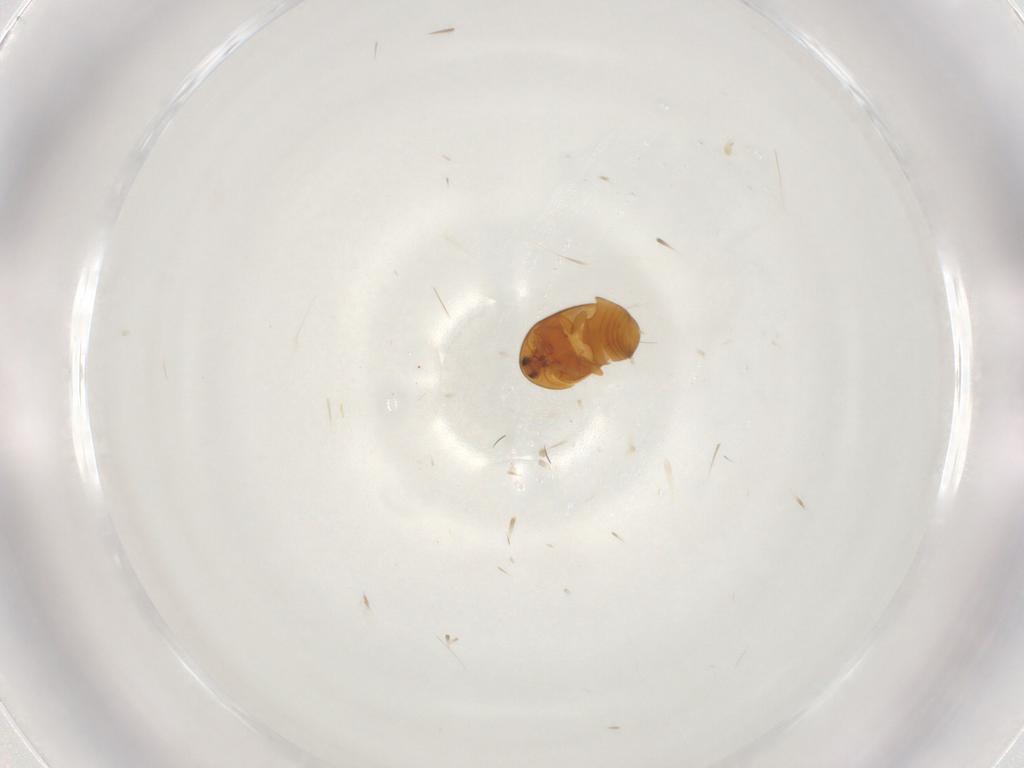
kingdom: Animalia
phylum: Arthropoda
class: Insecta
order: Coleoptera
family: Corylophidae
